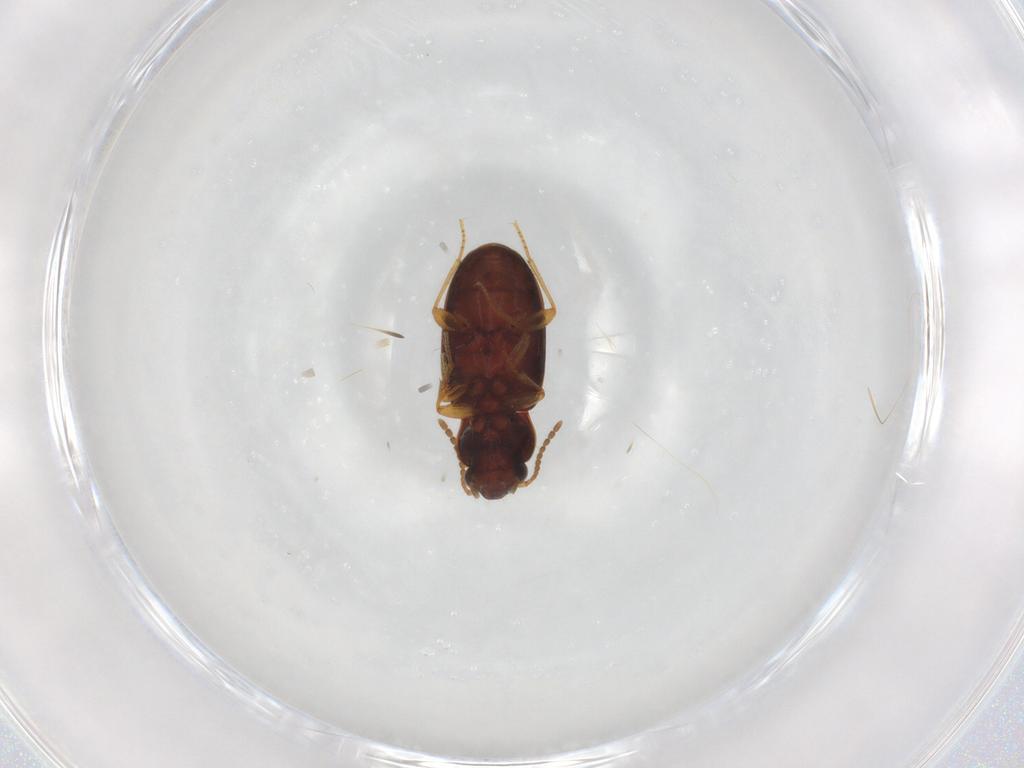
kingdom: Animalia
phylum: Arthropoda
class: Insecta
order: Coleoptera
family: Carabidae
